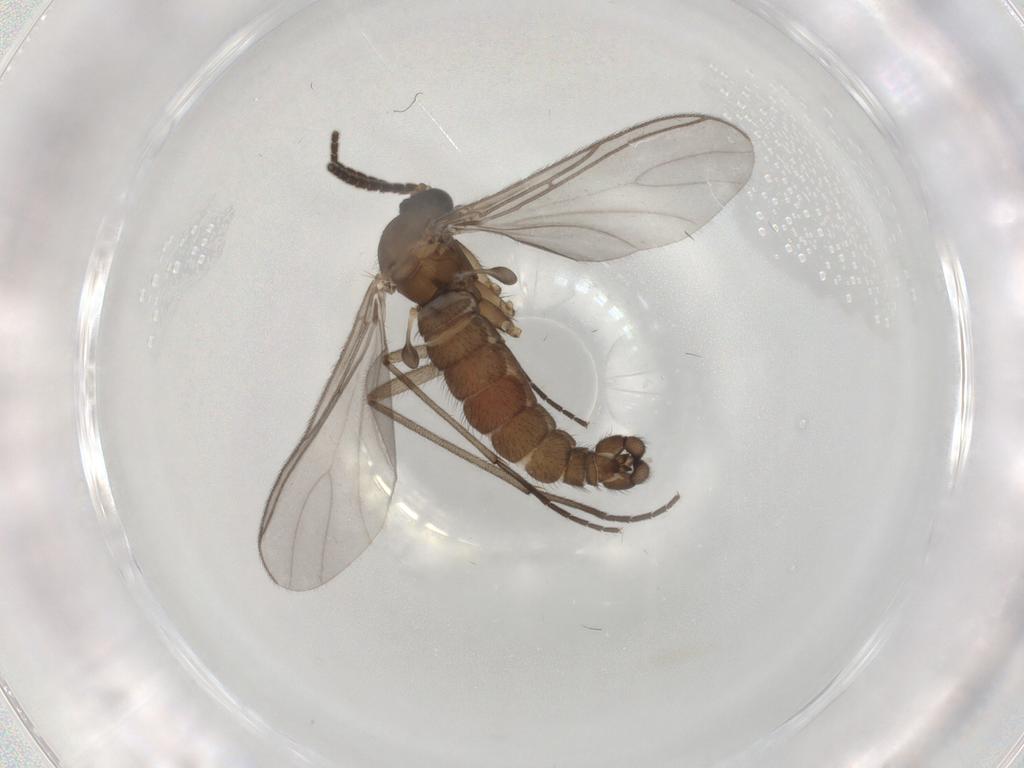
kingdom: Animalia
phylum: Arthropoda
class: Insecta
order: Diptera
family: Sciaridae
